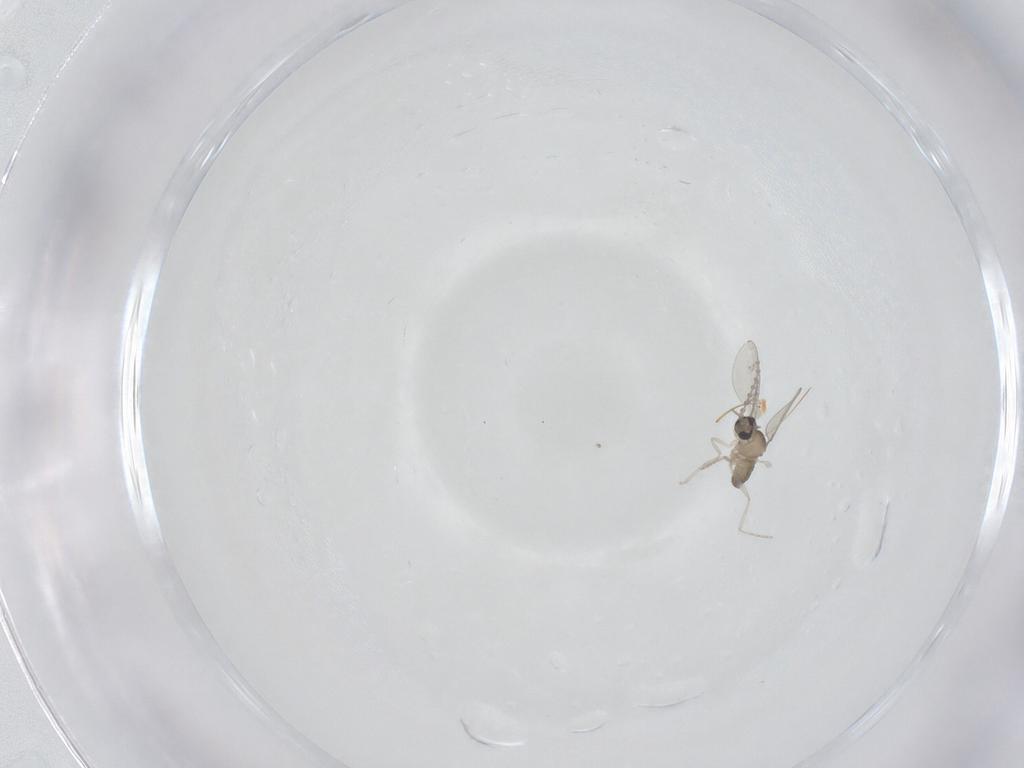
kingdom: Animalia
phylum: Arthropoda
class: Insecta
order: Diptera
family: Cecidomyiidae
